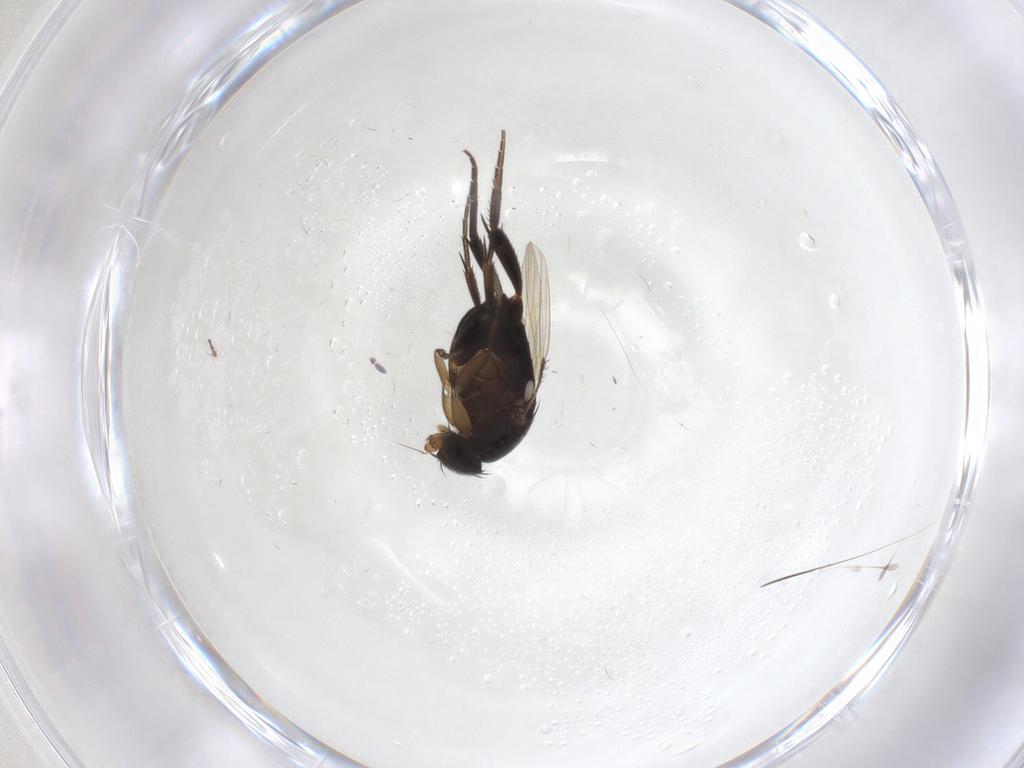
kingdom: Animalia
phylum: Arthropoda
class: Insecta
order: Diptera
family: Phoridae
